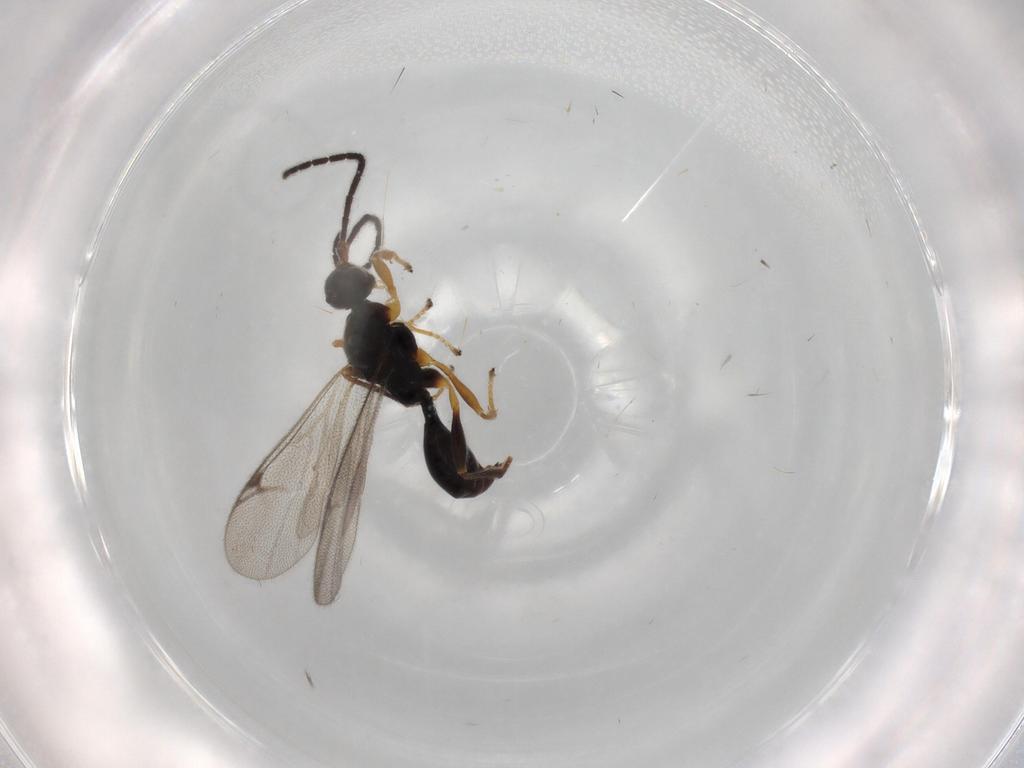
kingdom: Animalia
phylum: Arthropoda
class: Insecta
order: Hymenoptera
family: Proctotrupidae
